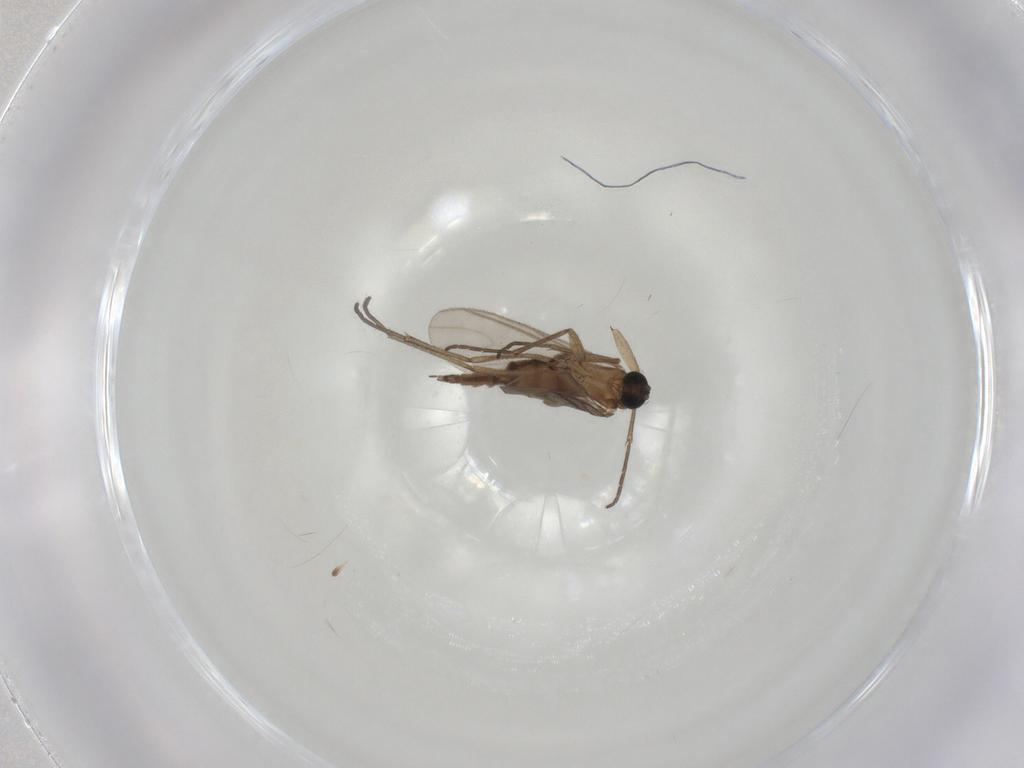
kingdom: Animalia
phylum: Arthropoda
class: Insecta
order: Diptera
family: Sciaridae
